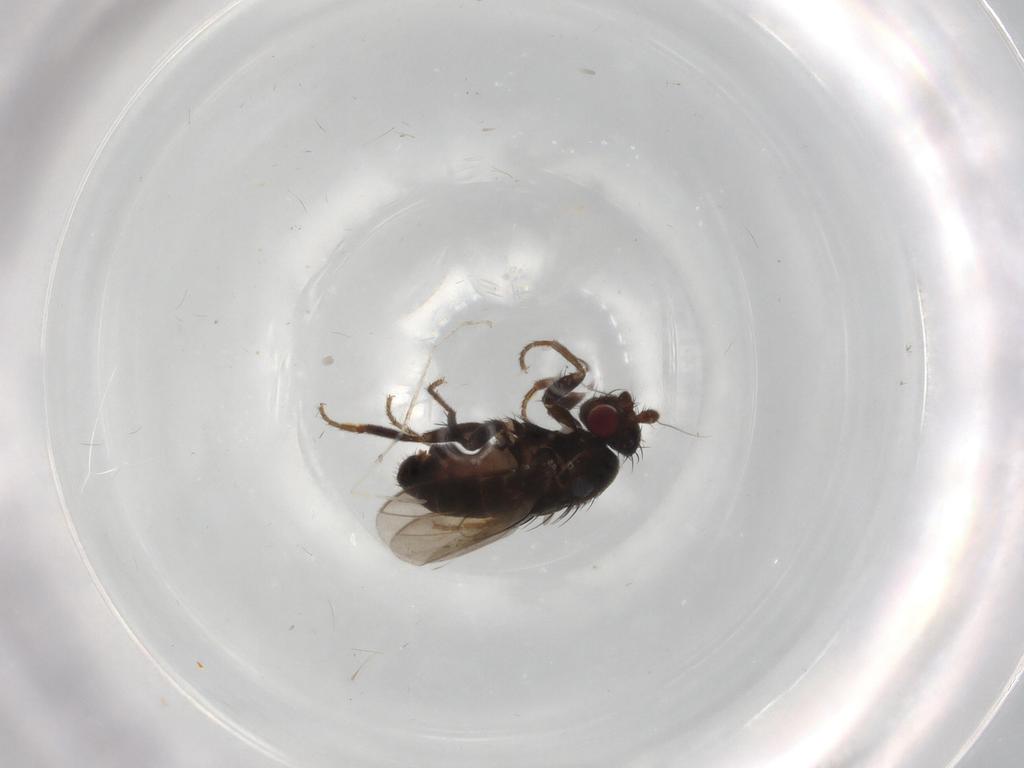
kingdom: Animalia
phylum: Arthropoda
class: Insecta
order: Diptera
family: Sphaeroceridae
